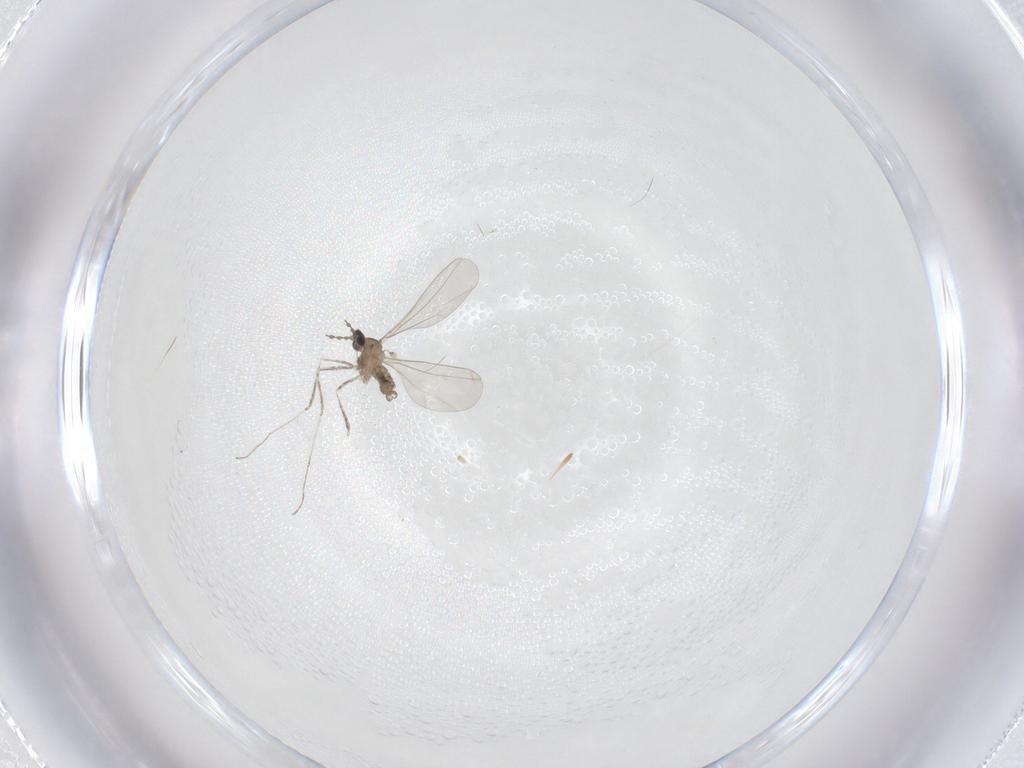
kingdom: Animalia
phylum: Arthropoda
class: Insecta
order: Diptera
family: Cecidomyiidae
